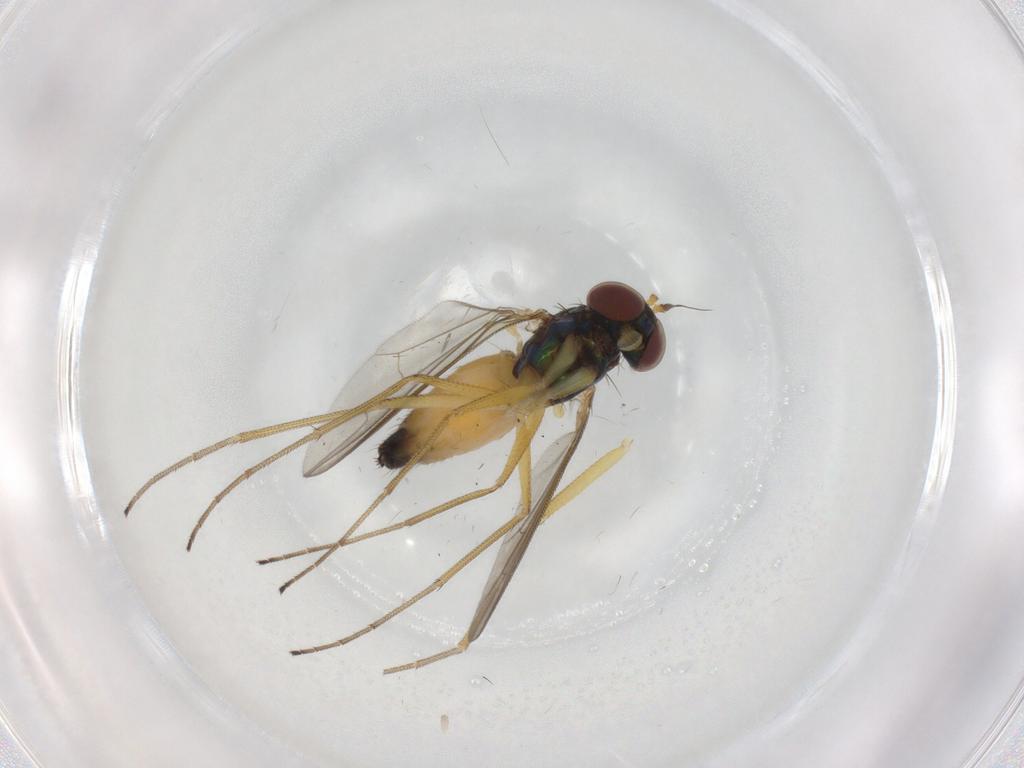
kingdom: Animalia
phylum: Arthropoda
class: Insecta
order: Diptera
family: Dolichopodidae
